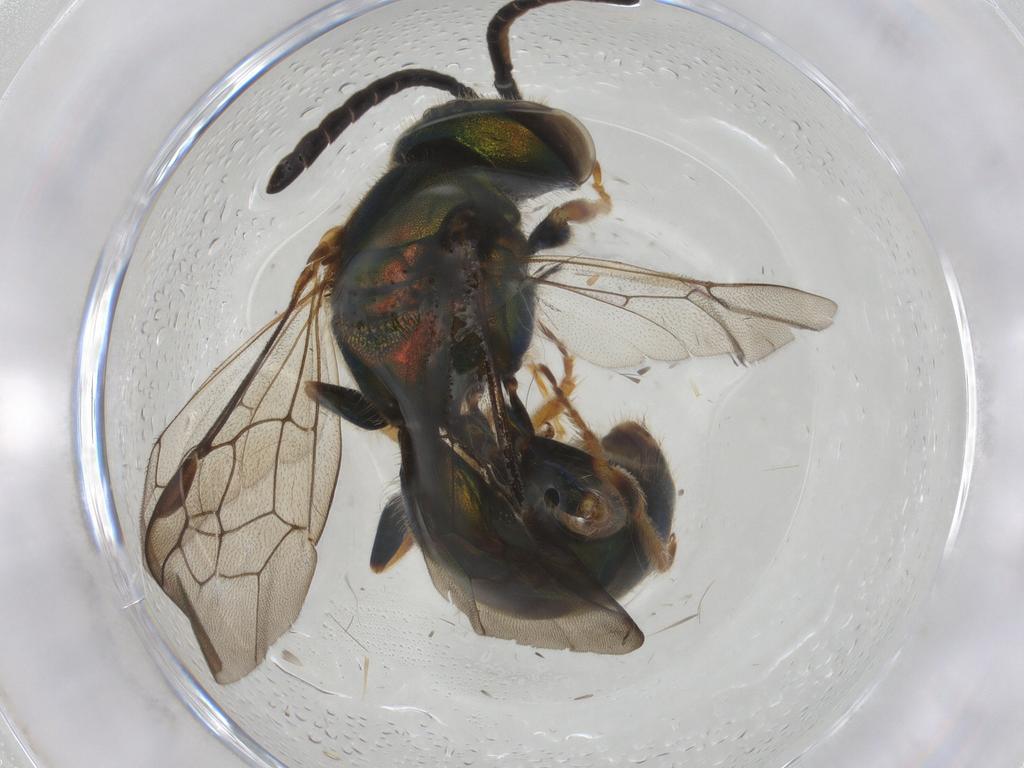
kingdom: Animalia
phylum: Arthropoda
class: Insecta
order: Hymenoptera
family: Halictidae
